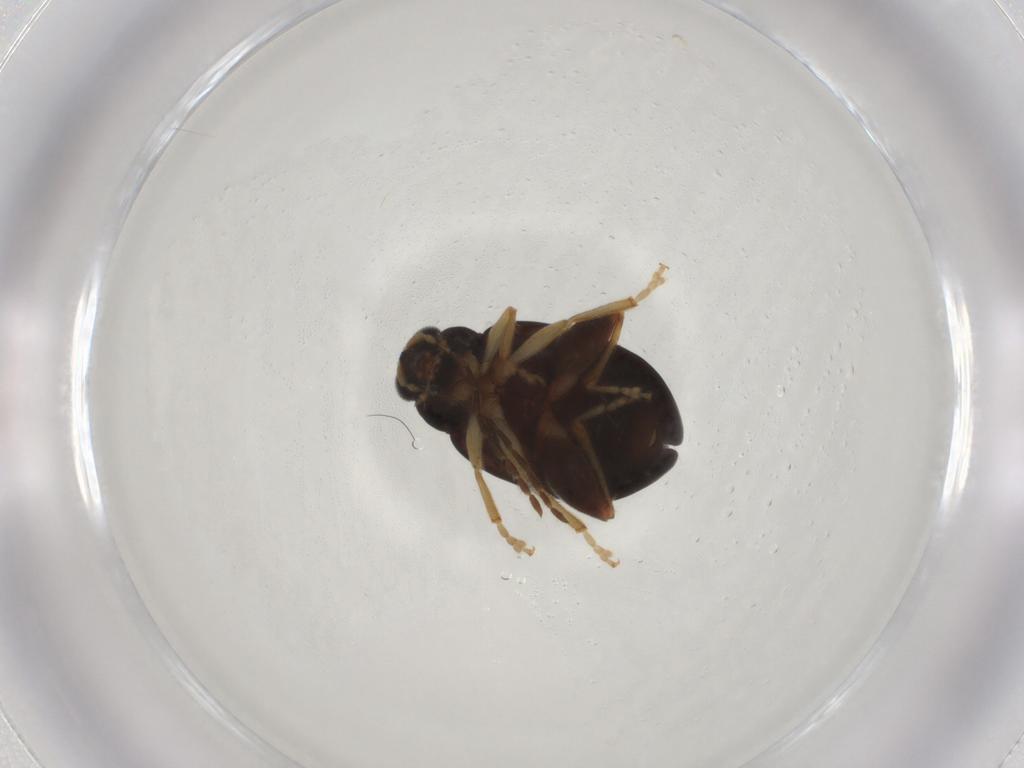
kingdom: Animalia
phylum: Arthropoda
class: Insecta
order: Coleoptera
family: Chrysomelidae
